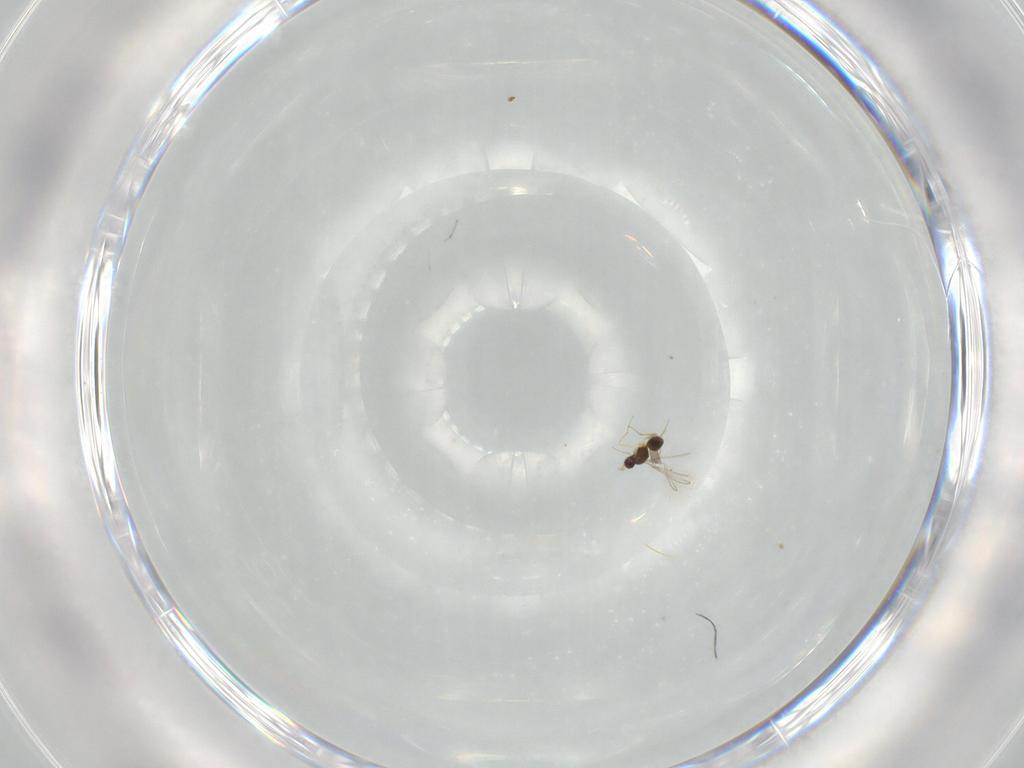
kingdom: Animalia
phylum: Arthropoda
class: Insecta
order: Hymenoptera
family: Mymaridae
